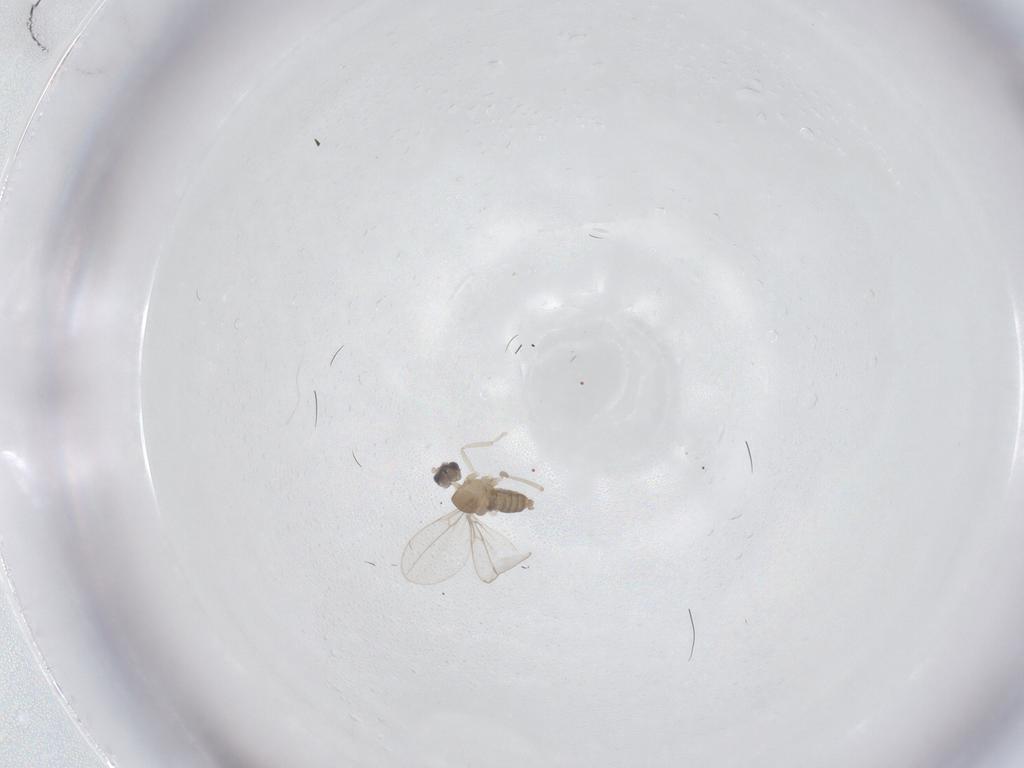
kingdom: Animalia
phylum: Arthropoda
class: Insecta
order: Diptera
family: Cecidomyiidae
